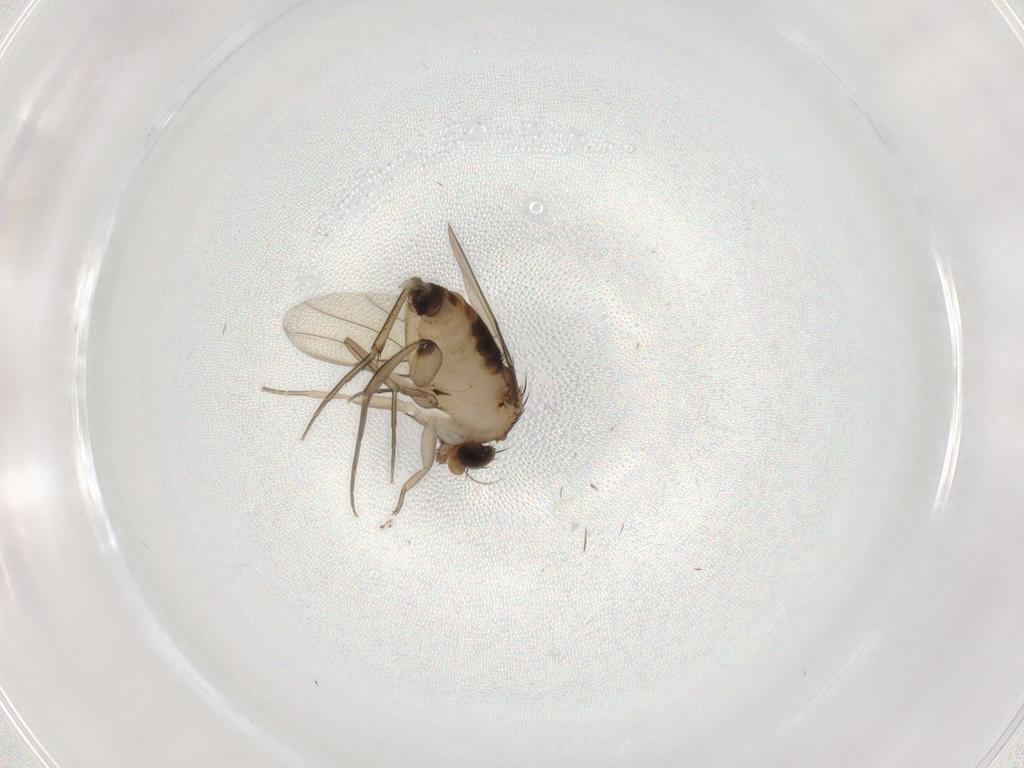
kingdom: Animalia
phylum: Arthropoda
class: Insecta
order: Diptera
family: Phoridae
